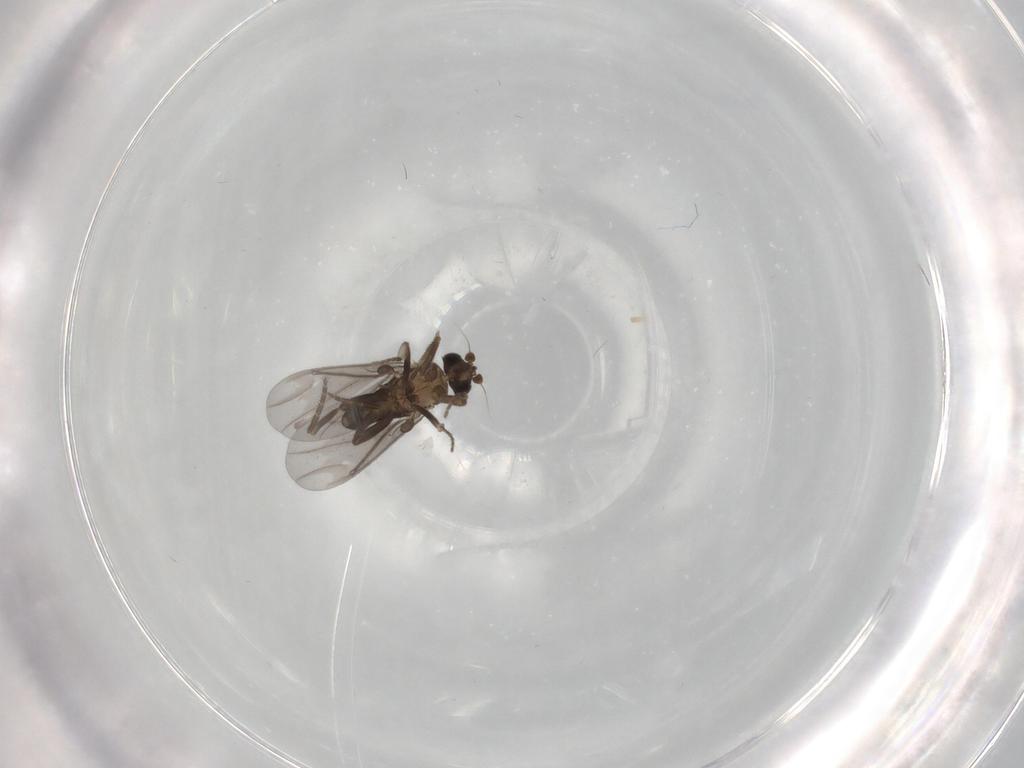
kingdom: Animalia
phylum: Arthropoda
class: Insecta
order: Diptera
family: Phoridae
